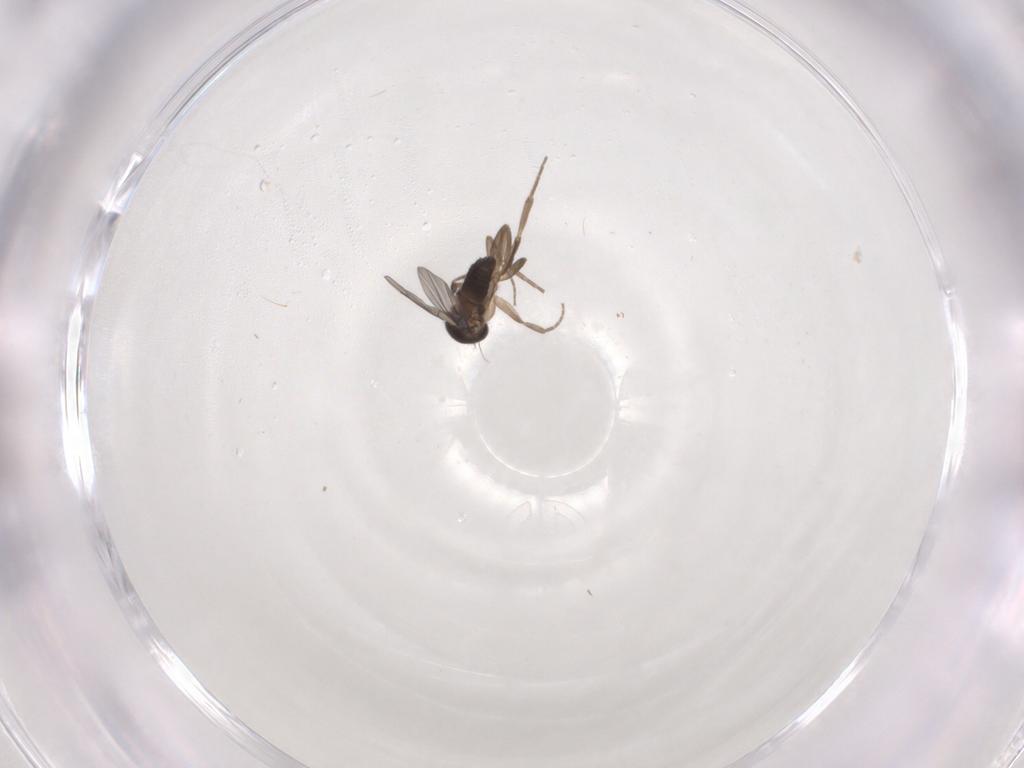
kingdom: Animalia
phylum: Arthropoda
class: Insecta
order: Diptera
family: Phoridae
